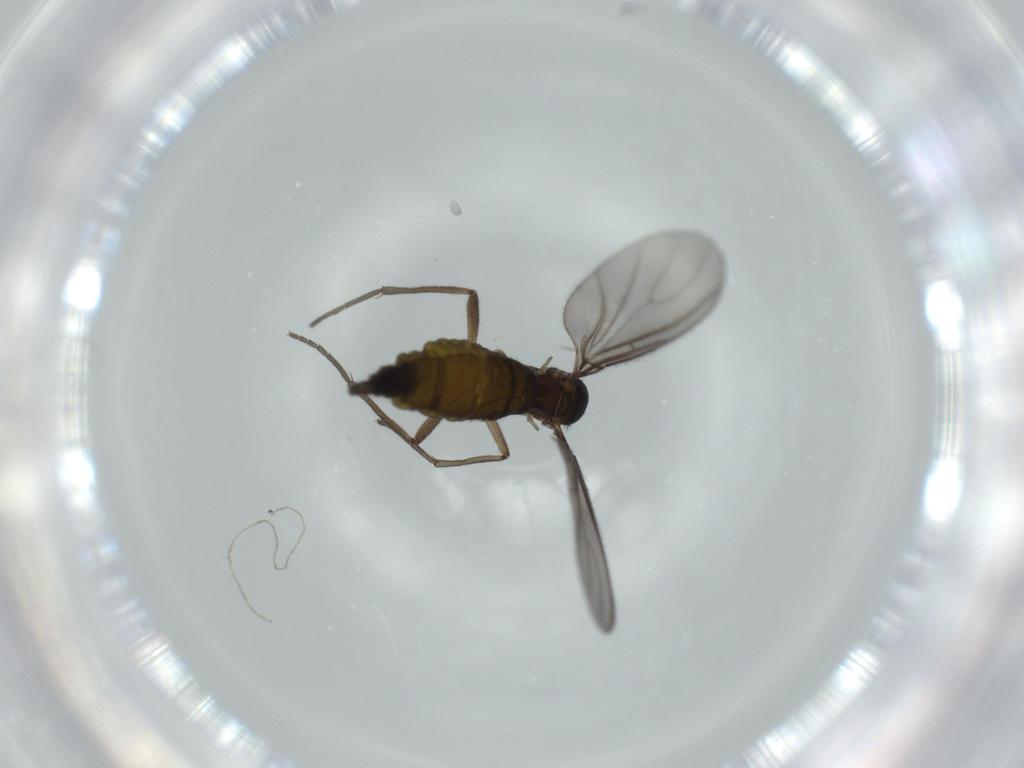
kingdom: Animalia
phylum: Arthropoda
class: Insecta
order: Diptera
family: Sciaridae
